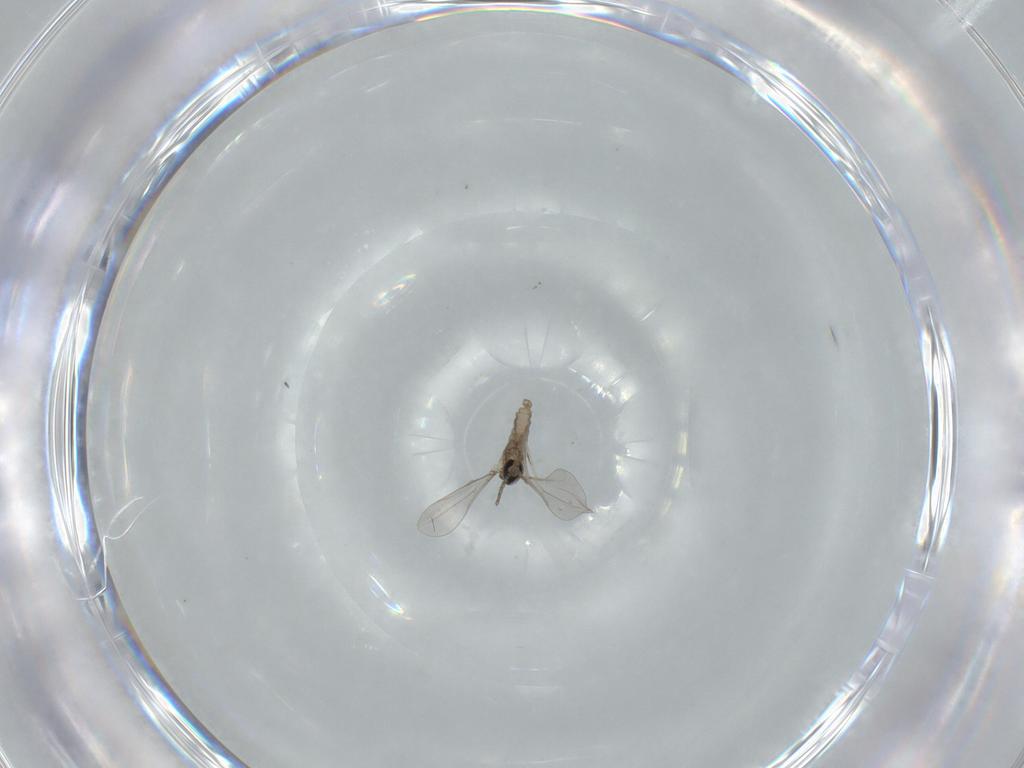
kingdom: Animalia
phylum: Arthropoda
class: Insecta
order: Diptera
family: Cecidomyiidae
